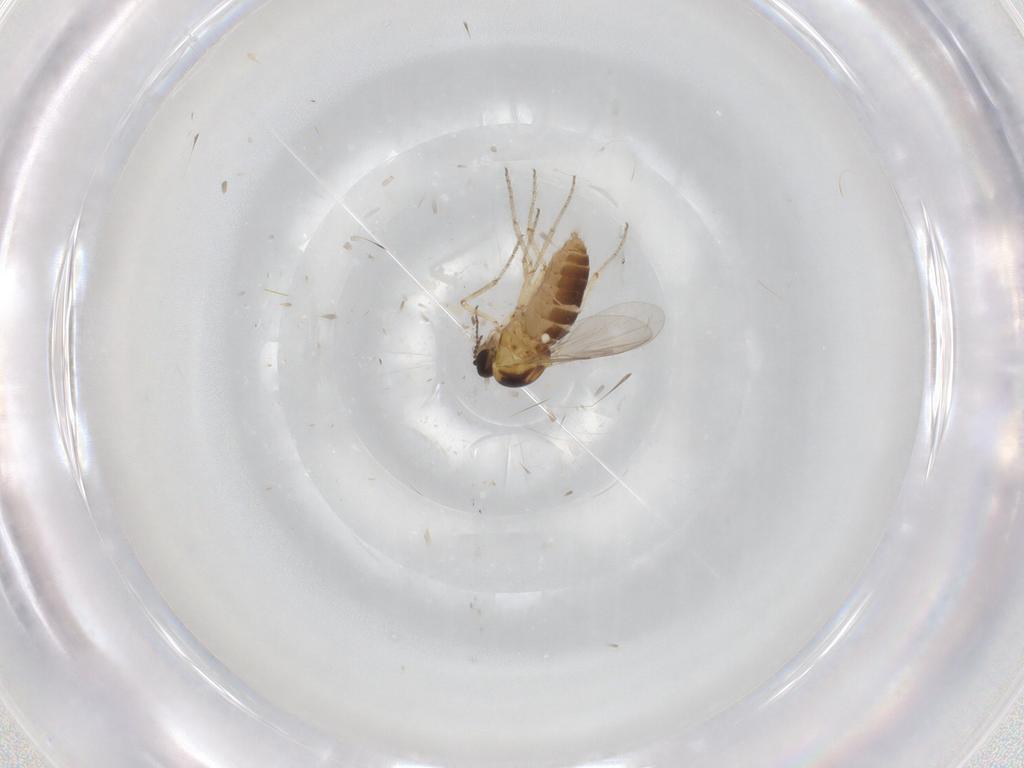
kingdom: Animalia
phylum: Arthropoda
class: Insecta
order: Diptera
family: Ceratopogonidae
